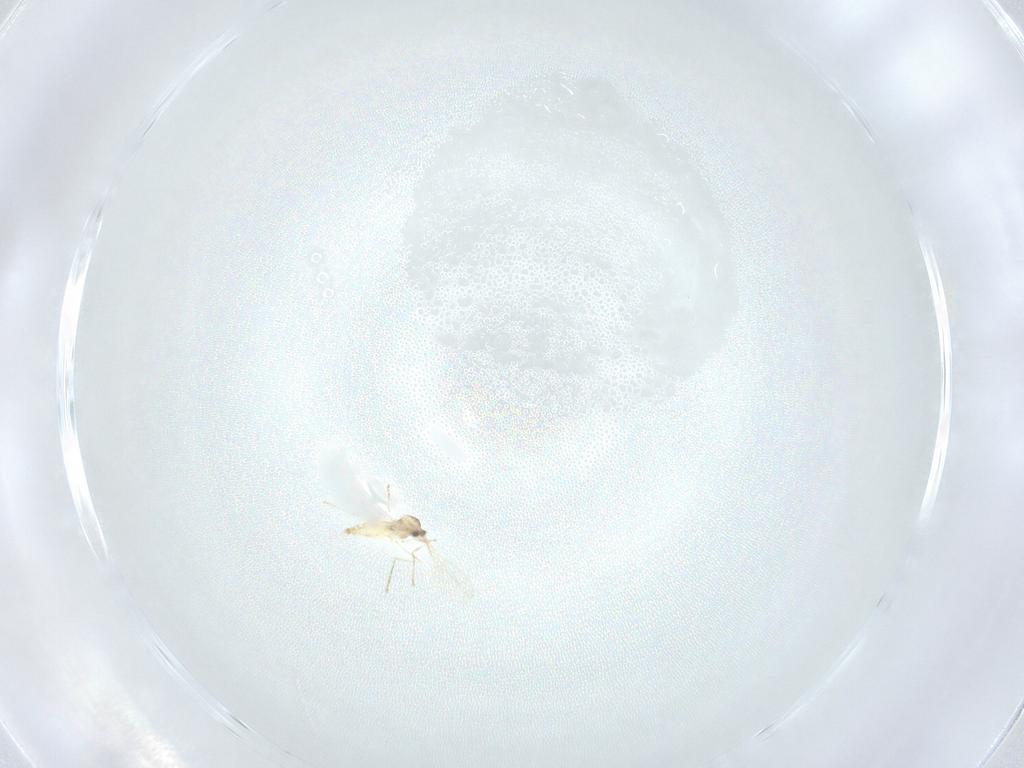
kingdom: Animalia
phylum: Arthropoda
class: Insecta
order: Diptera
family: Cecidomyiidae
